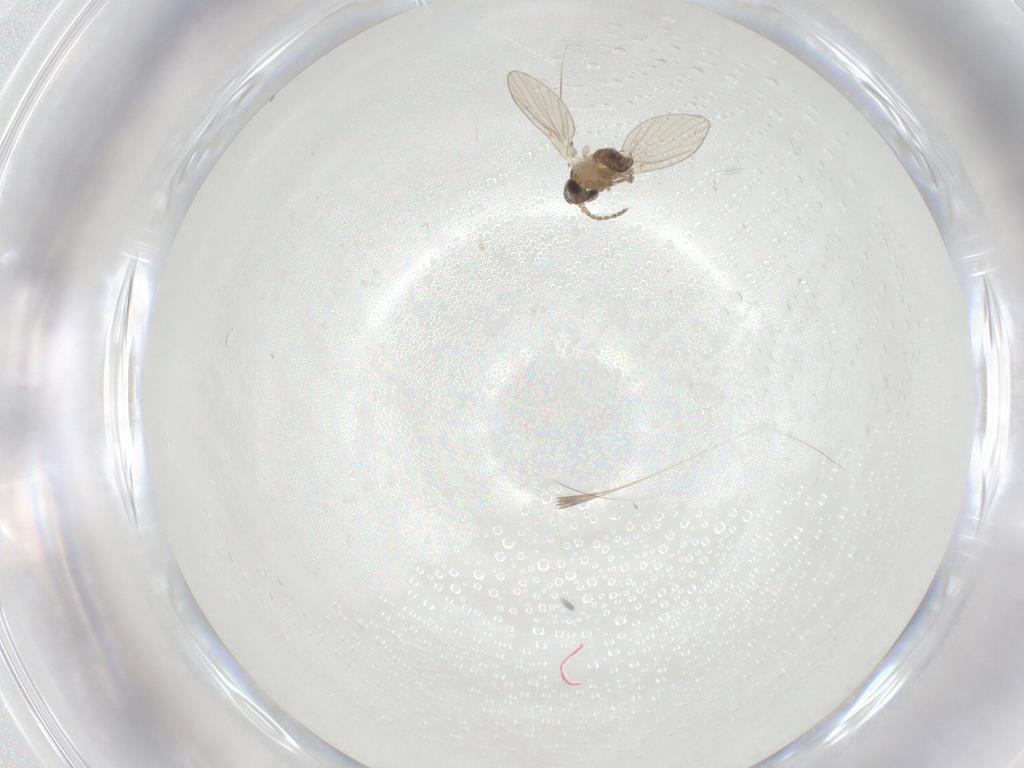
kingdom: Animalia
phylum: Arthropoda
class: Insecta
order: Diptera
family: Psychodidae
